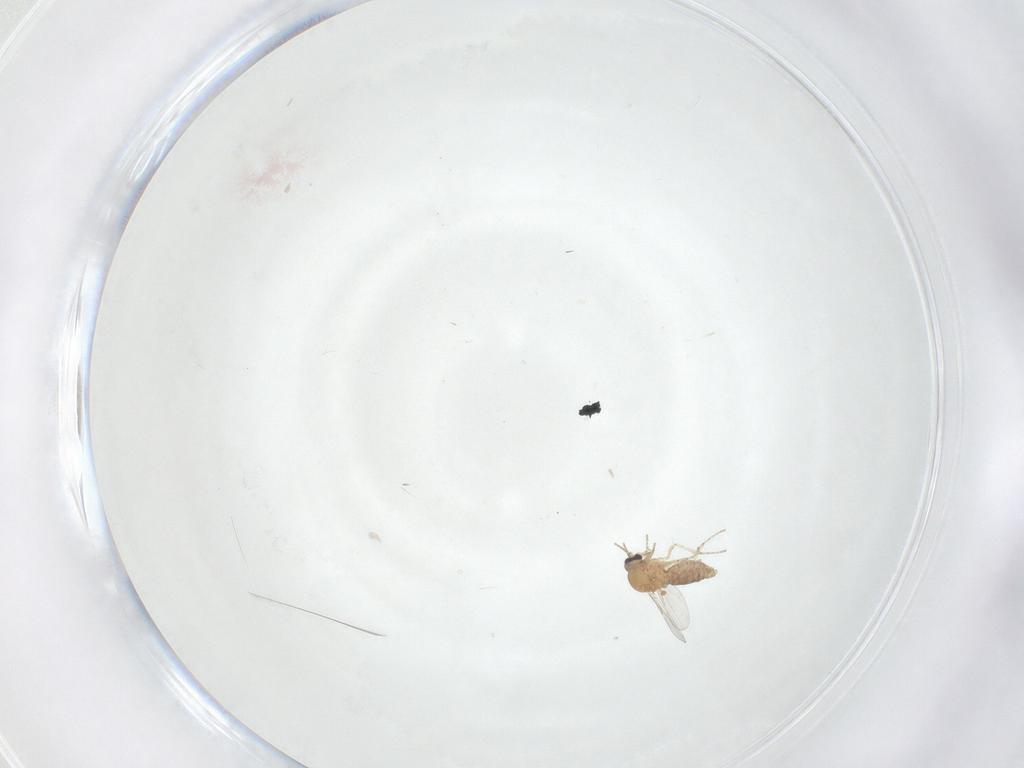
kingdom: Animalia
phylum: Arthropoda
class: Insecta
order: Diptera
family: Ceratopogonidae
